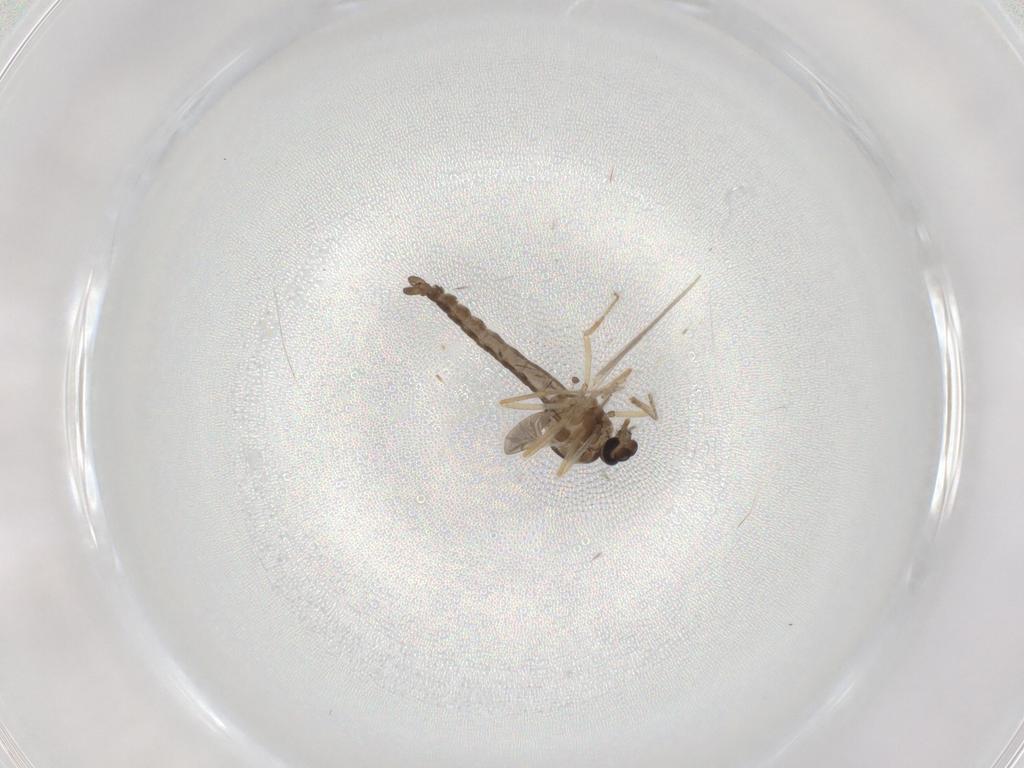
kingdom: Animalia
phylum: Arthropoda
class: Insecta
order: Diptera
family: Ceratopogonidae
